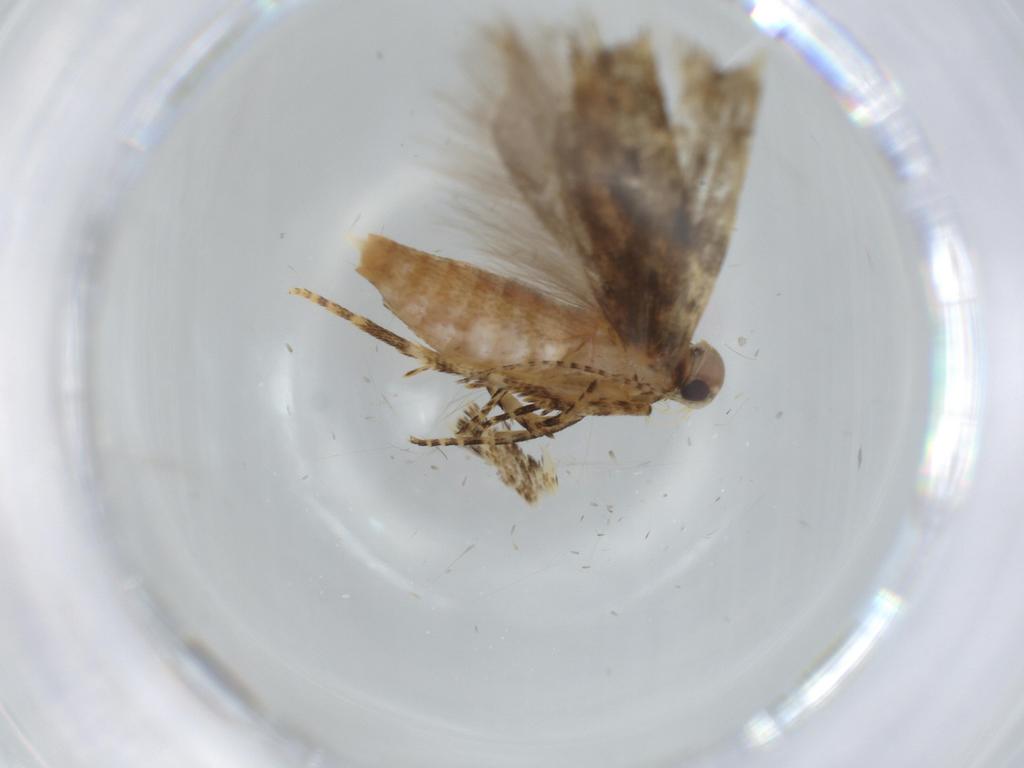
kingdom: Animalia
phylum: Arthropoda
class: Insecta
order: Lepidoptera
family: Gelechiidae
